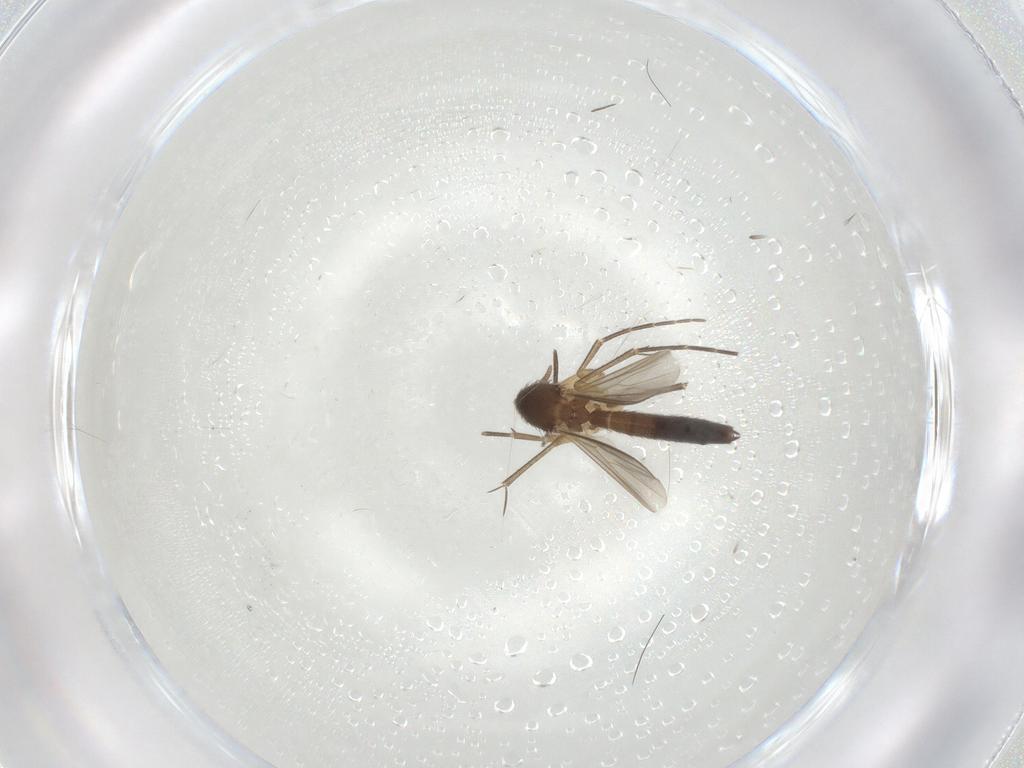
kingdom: Animalia
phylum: Arthropoda
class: Insecta
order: Diptera
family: Mycetophilidae
